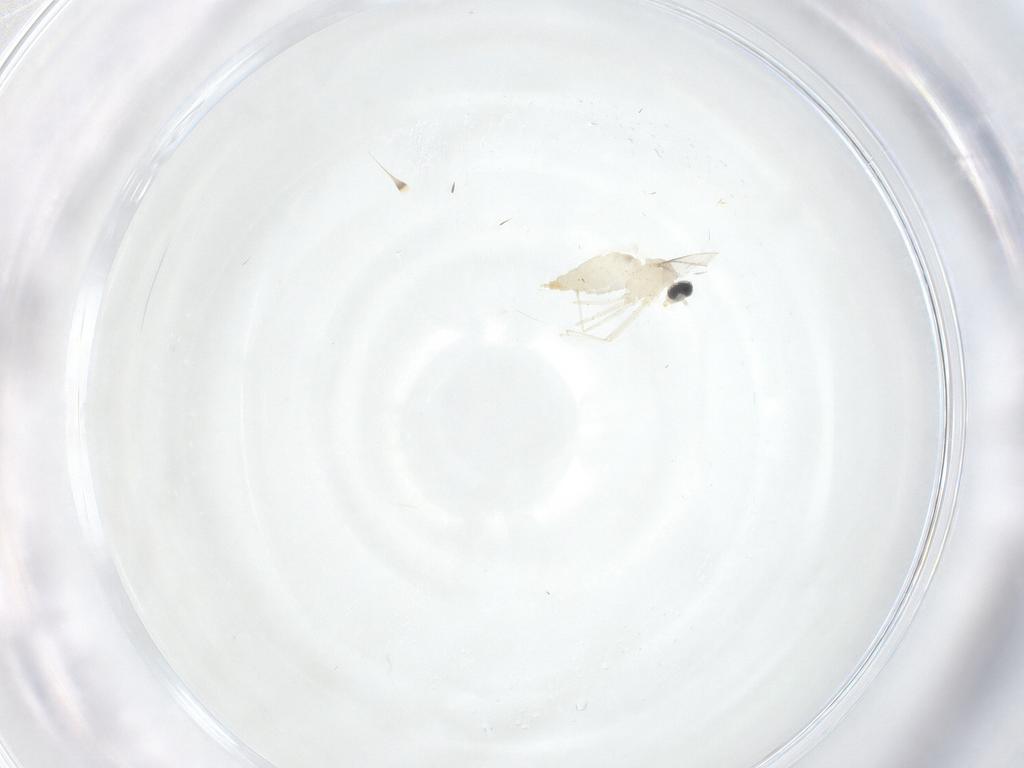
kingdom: Animalia
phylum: Arthropoda
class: Insecta
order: Diptera
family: Cecidomyiidae
